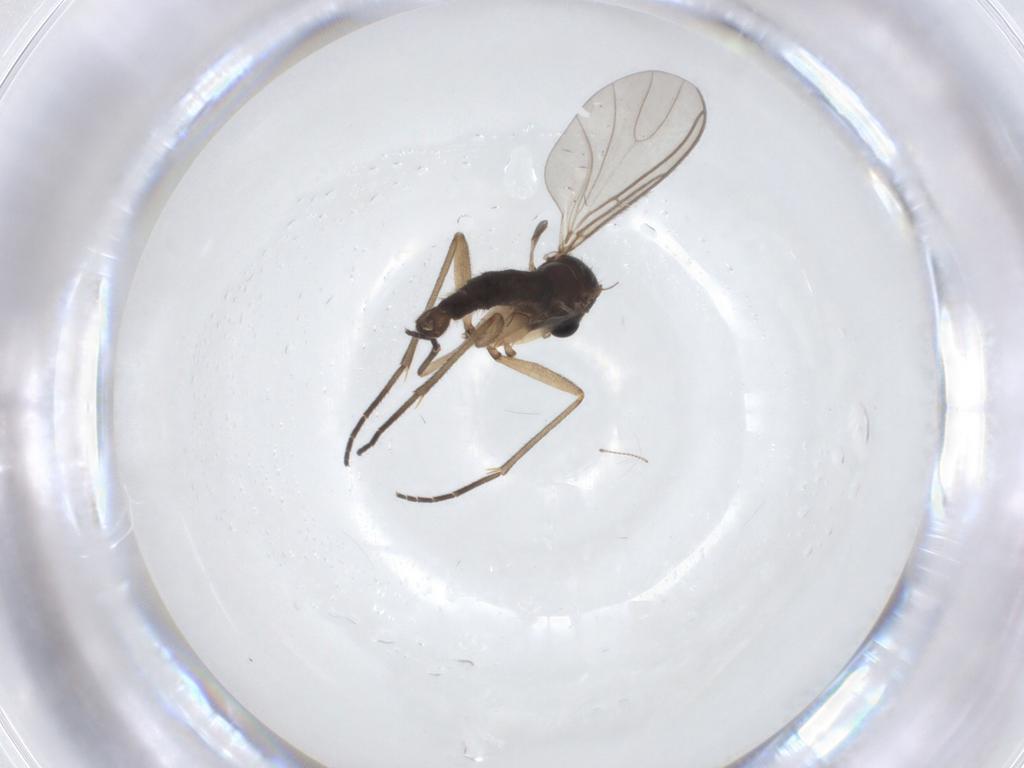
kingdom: Animalia
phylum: Arthropoda
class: Insecta
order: Diptera
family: Sciaridae
